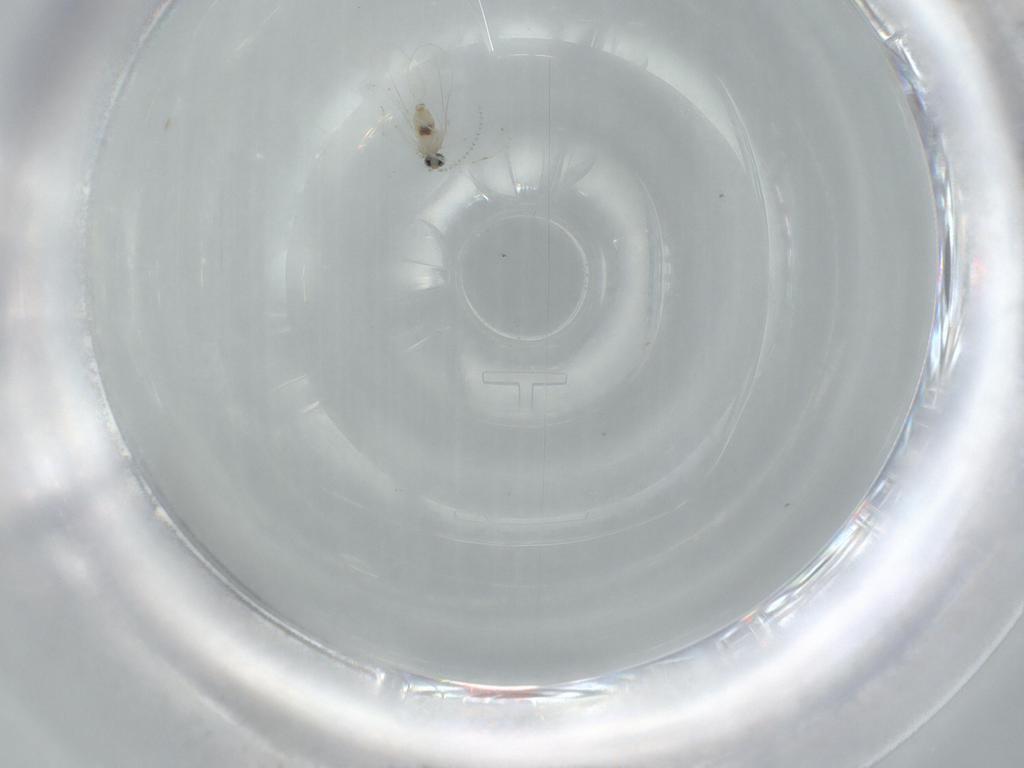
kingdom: Animalia
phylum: Arthropoda
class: Insecta
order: Diptera
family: Cecidomyiidae
